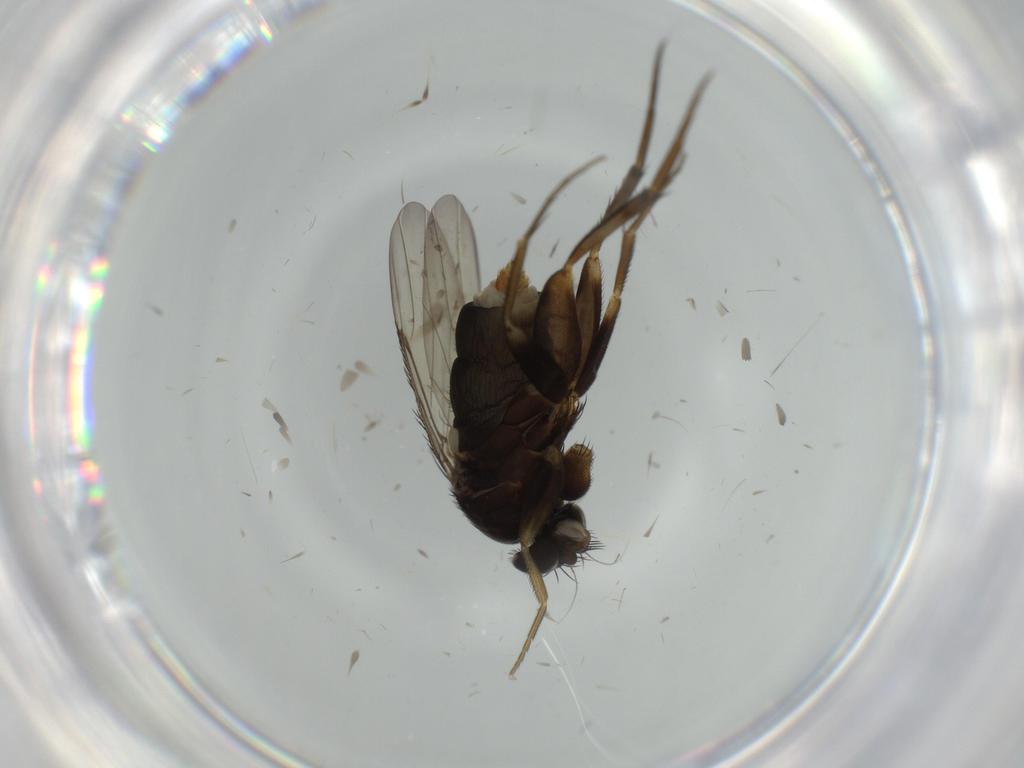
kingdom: Animalia
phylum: Arthropoda
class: Insecta
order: Diptera
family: Phoridae
